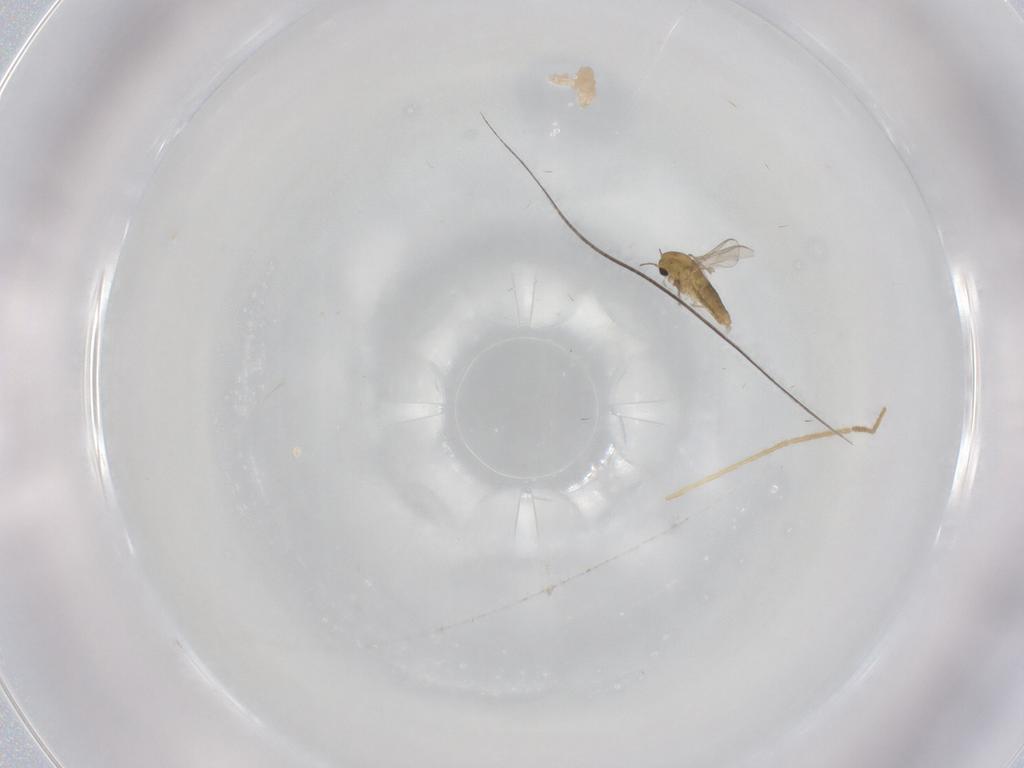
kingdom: Animalia
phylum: Arthropoda
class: Insecta
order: Diptera
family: Chironomidae
